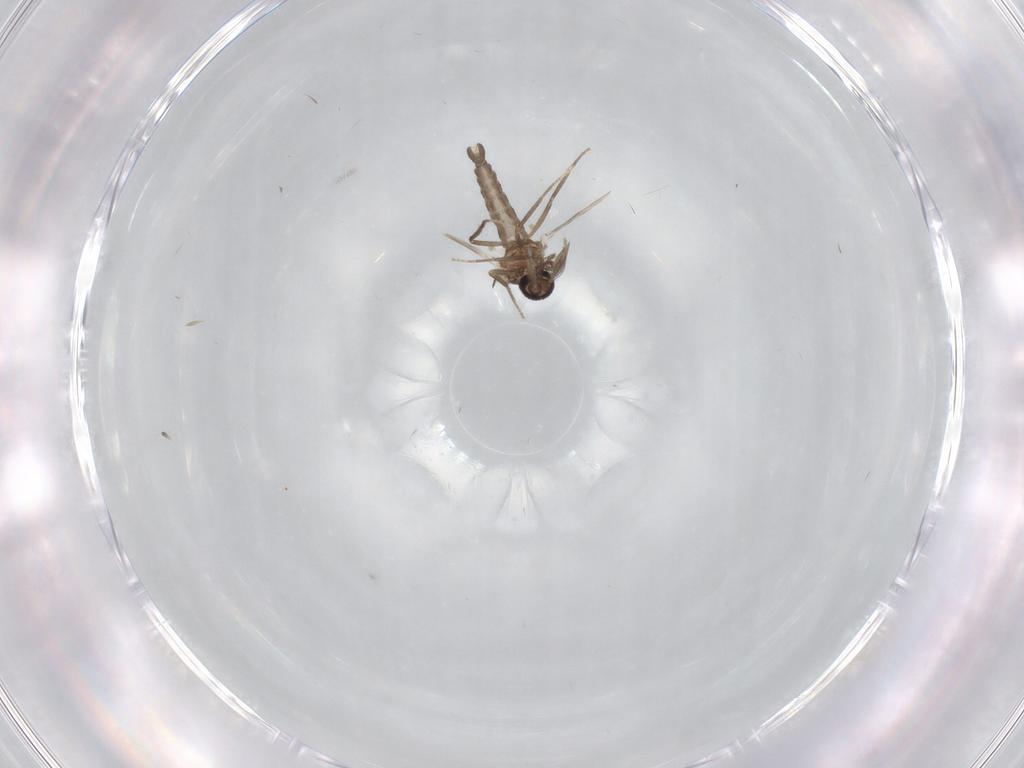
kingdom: Animalia
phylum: Arthropoda
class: Insecta
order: Diptera
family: Ceratopogonidae
